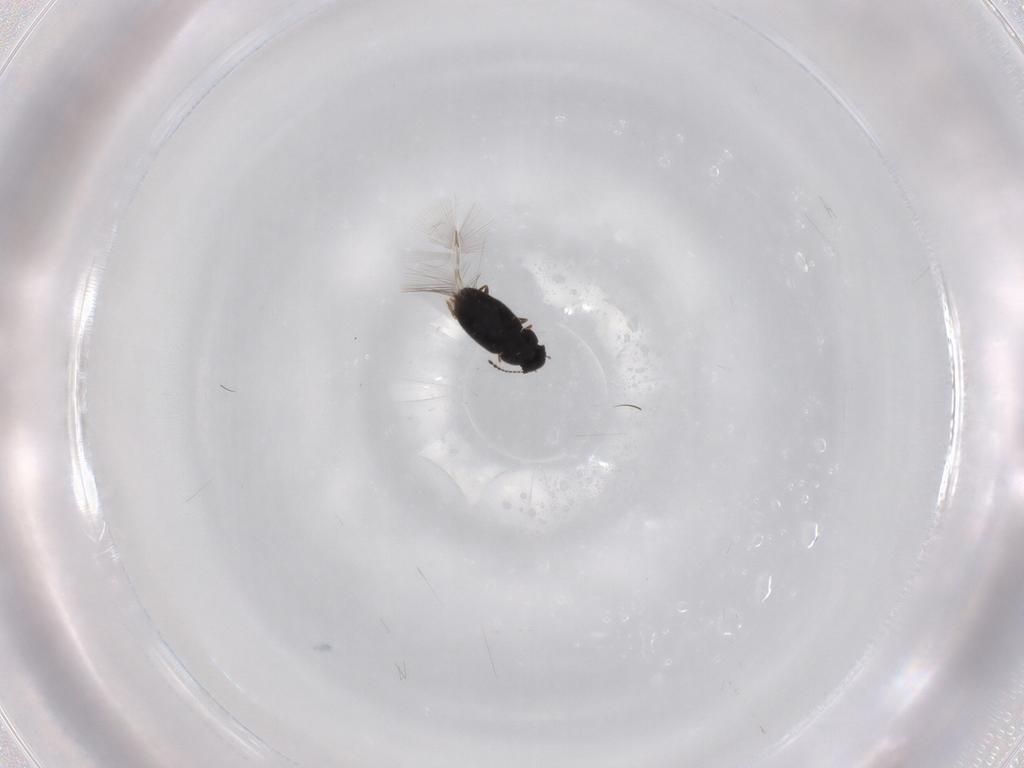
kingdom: Animalia
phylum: Arthropoda
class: Insecta
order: Coleoptera
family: Ptiliidae
